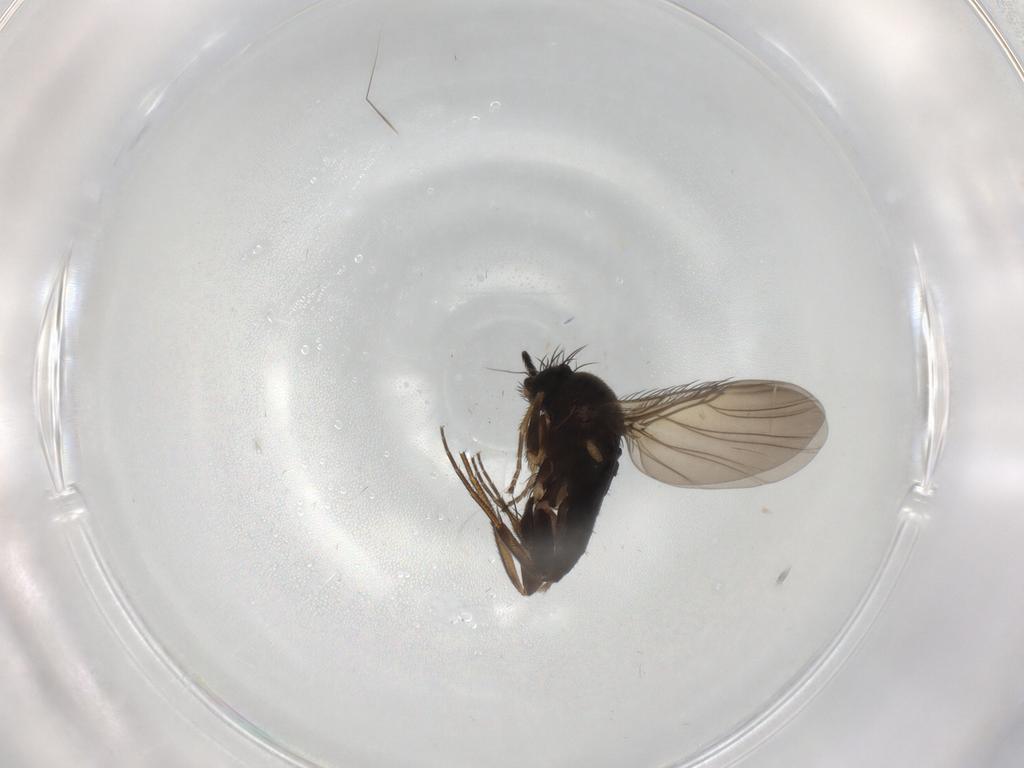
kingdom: Animalia
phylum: Arthropoda
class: Insecta
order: Diptera
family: Phoridae
